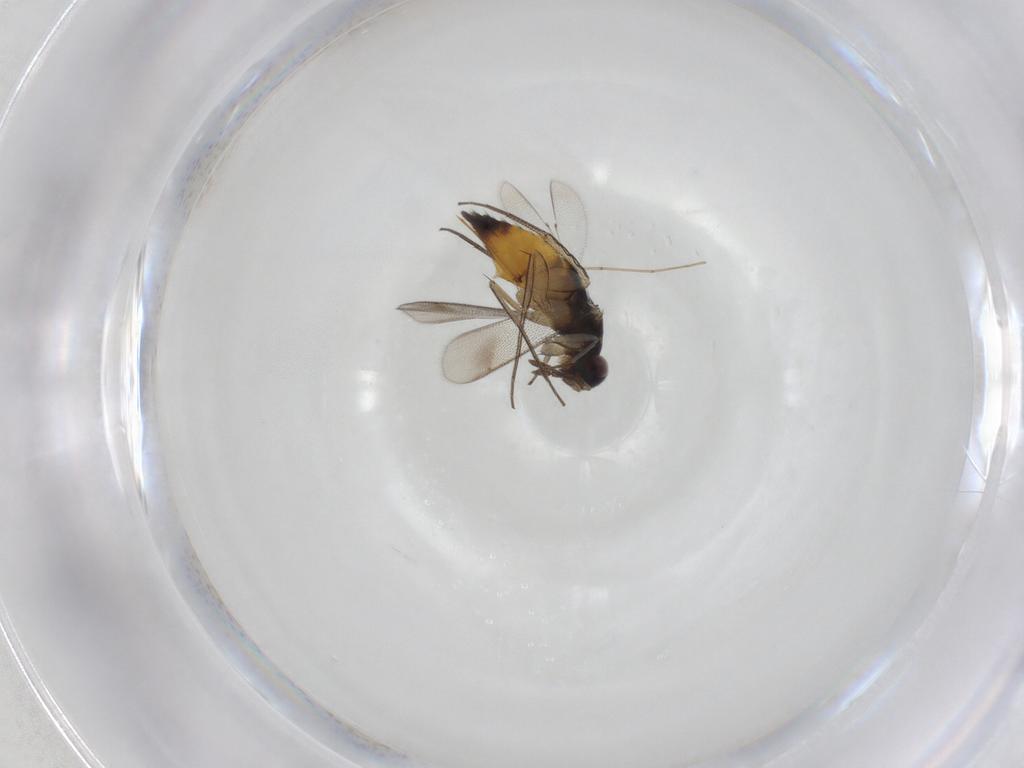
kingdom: Animalia
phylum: Arthropoda
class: Insecta
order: Hymenoptera
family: Eulophidae
